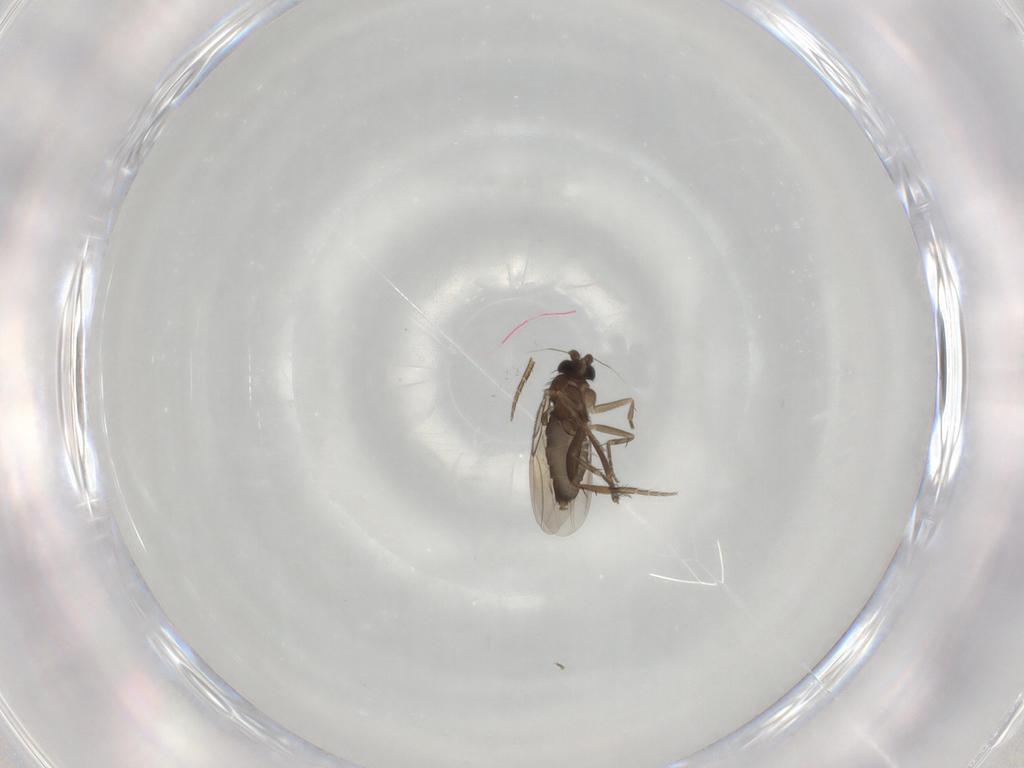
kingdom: Animalia
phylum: Arthropoda
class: Insecta
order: Diptera
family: Phoridae
